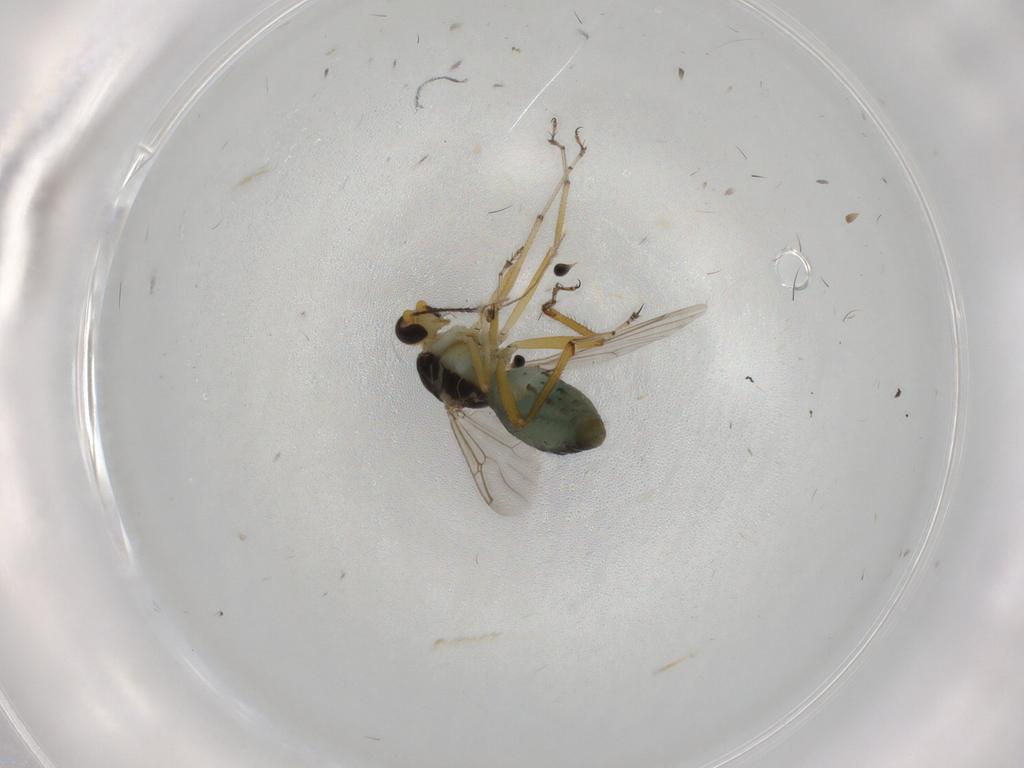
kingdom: Animalia
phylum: Arthropoda
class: Insecta
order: Diptera
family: Ceratopogonidae
